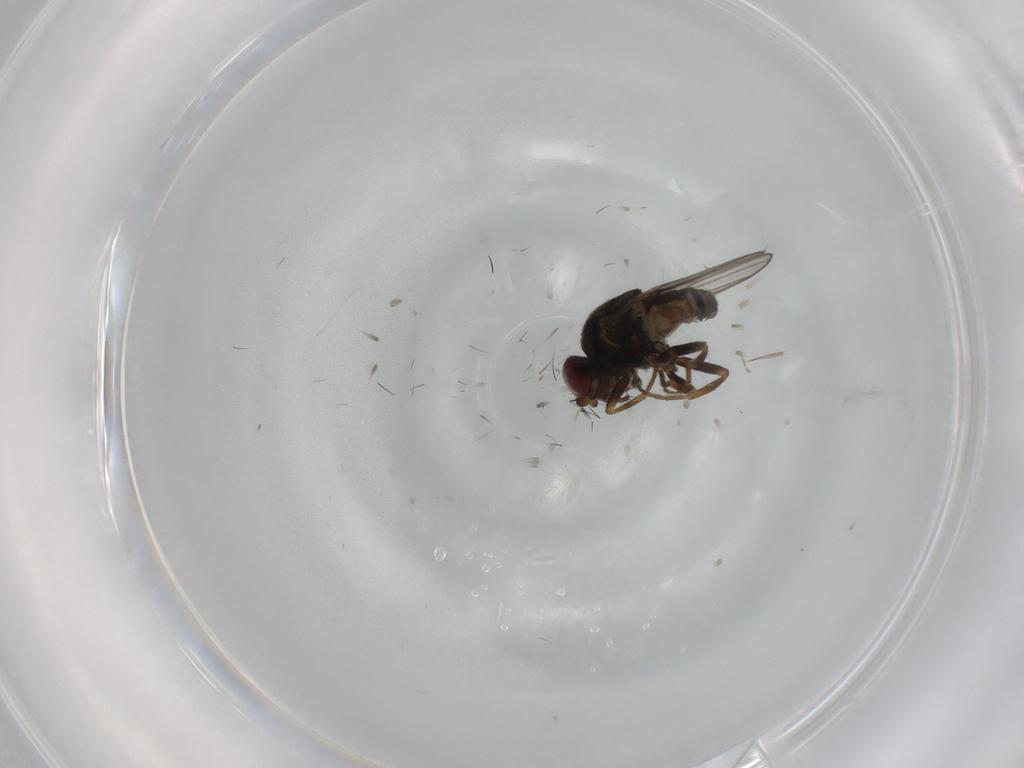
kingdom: Animalia
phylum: Arthropoda
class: Insecta
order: Diptera
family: Chloropidae
